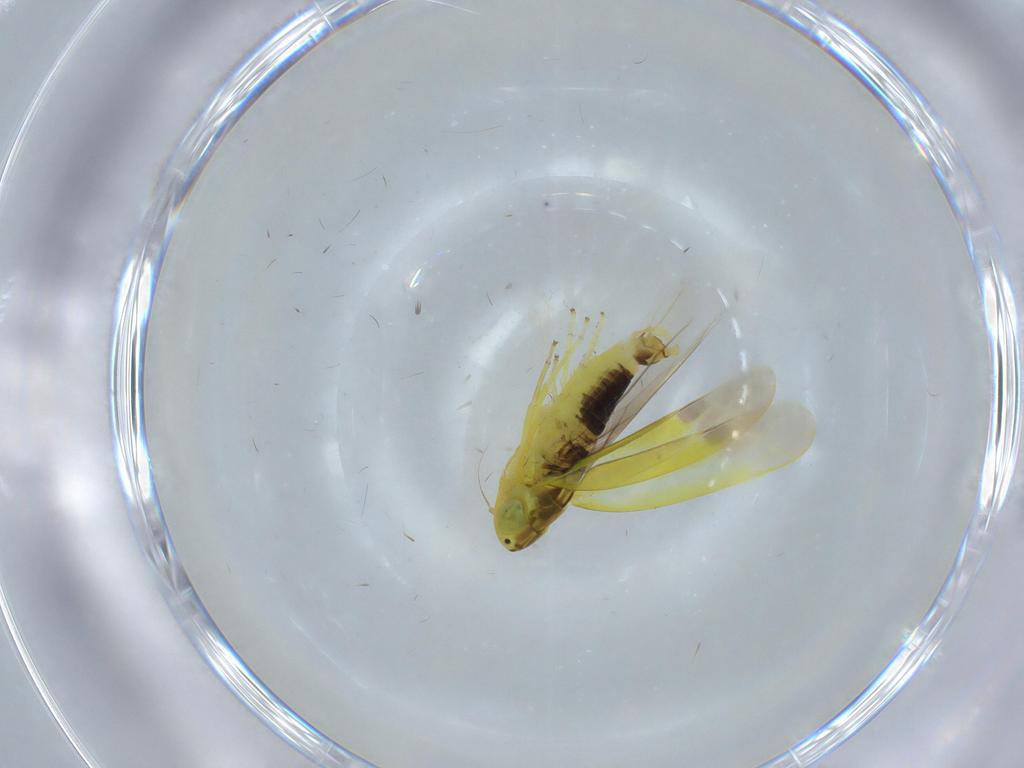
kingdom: Animalia
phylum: Arthropoda
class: Insecta
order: Hemiptera
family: Cicadellidae
